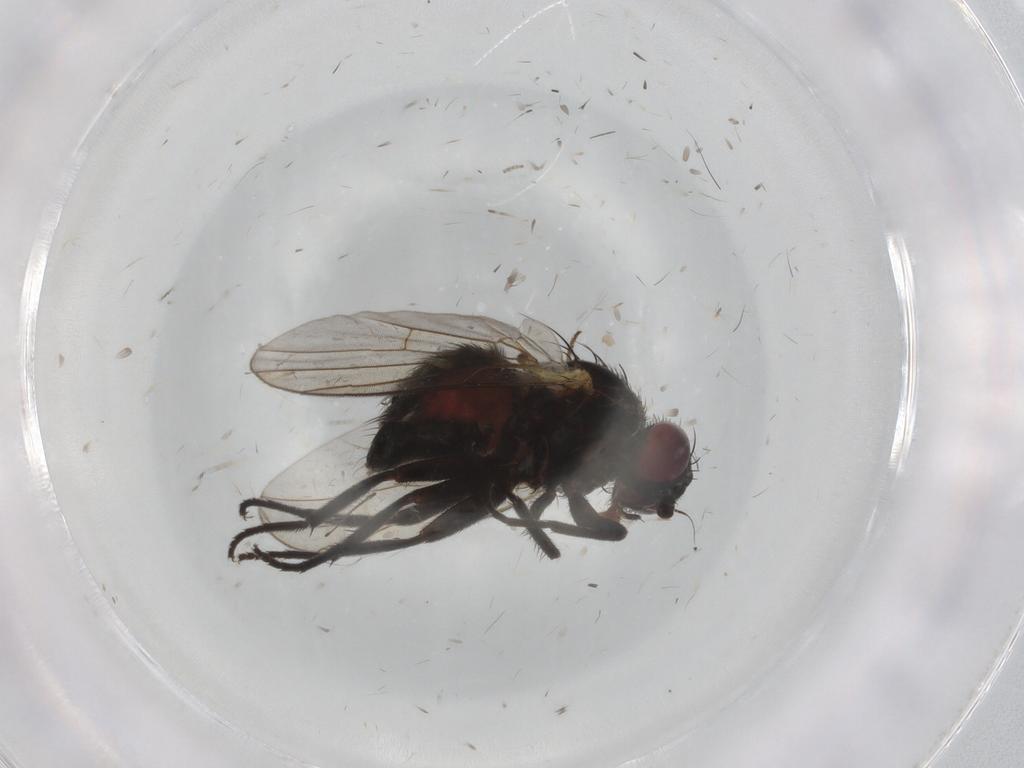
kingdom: Animalia
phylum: Arthropoda
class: Insecta
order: Diptera
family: Agromyzidae
